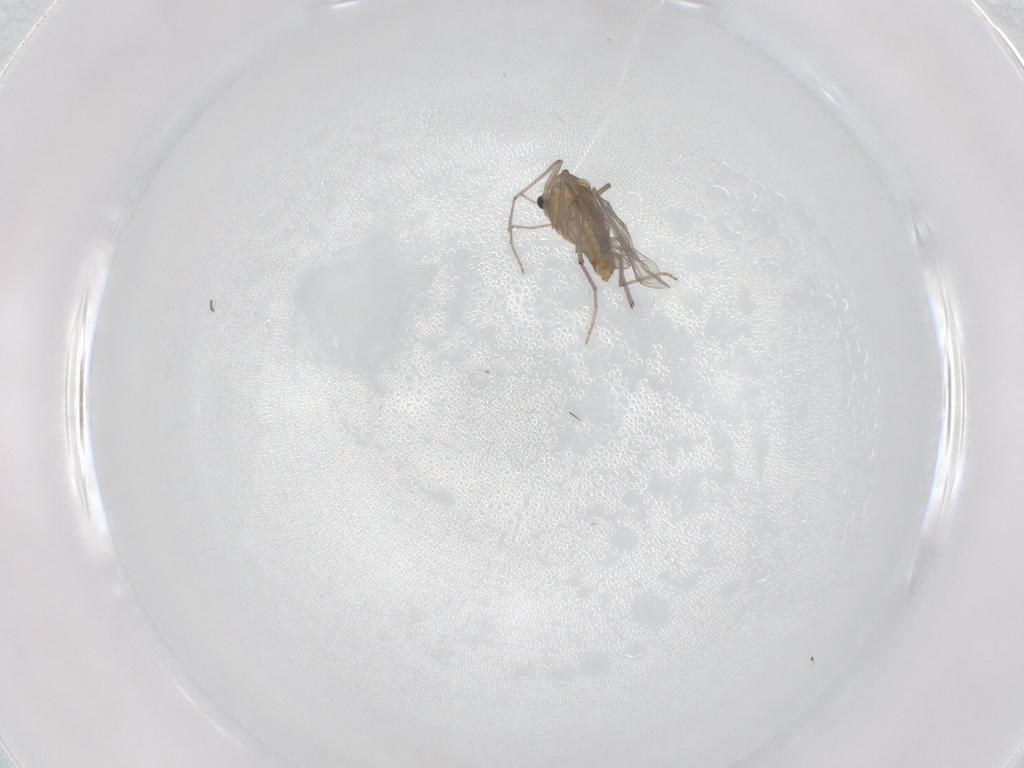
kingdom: Animalia
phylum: Arthropoda
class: Insecta
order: Diptera
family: Chironomidae
